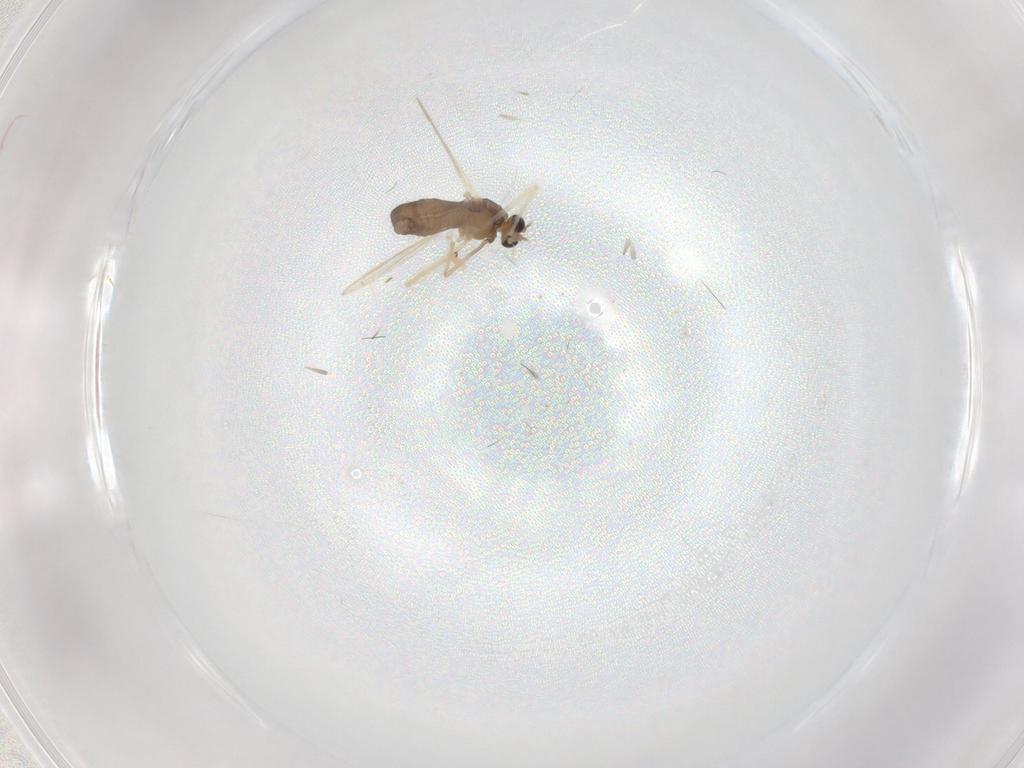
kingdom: Animalia
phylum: Arthropoda
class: Insecta
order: Diptera
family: Chironomidae
